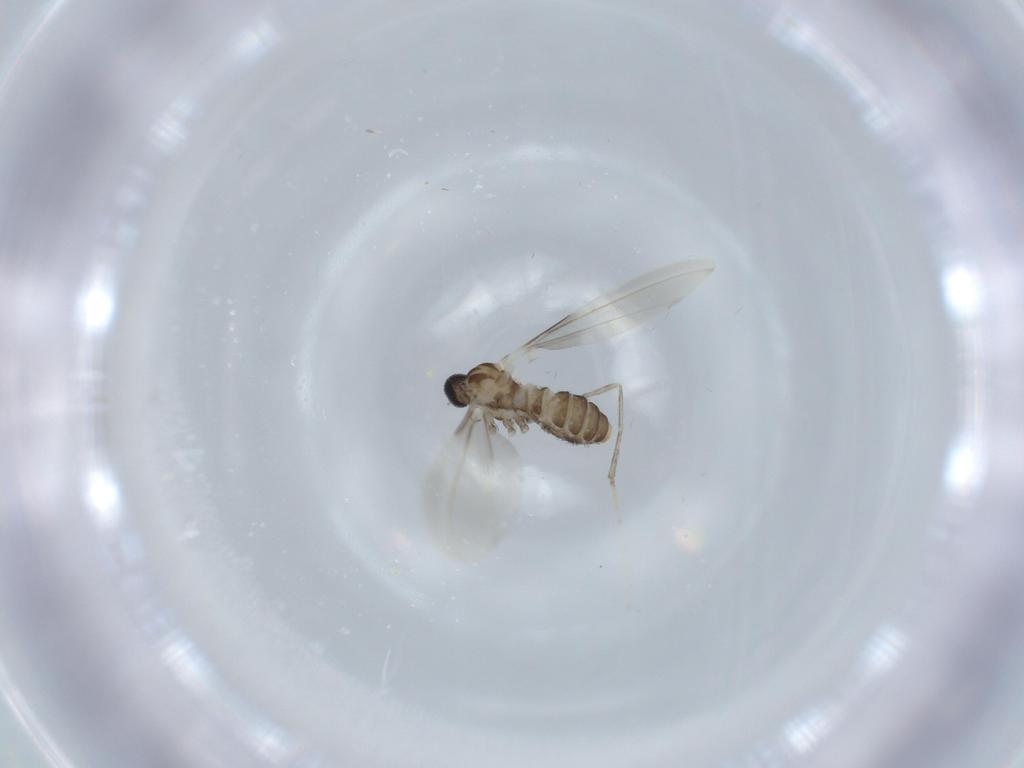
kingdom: Animalia
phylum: Arthropoda
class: Insecta
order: Diptera
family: Cecidomyiidae
